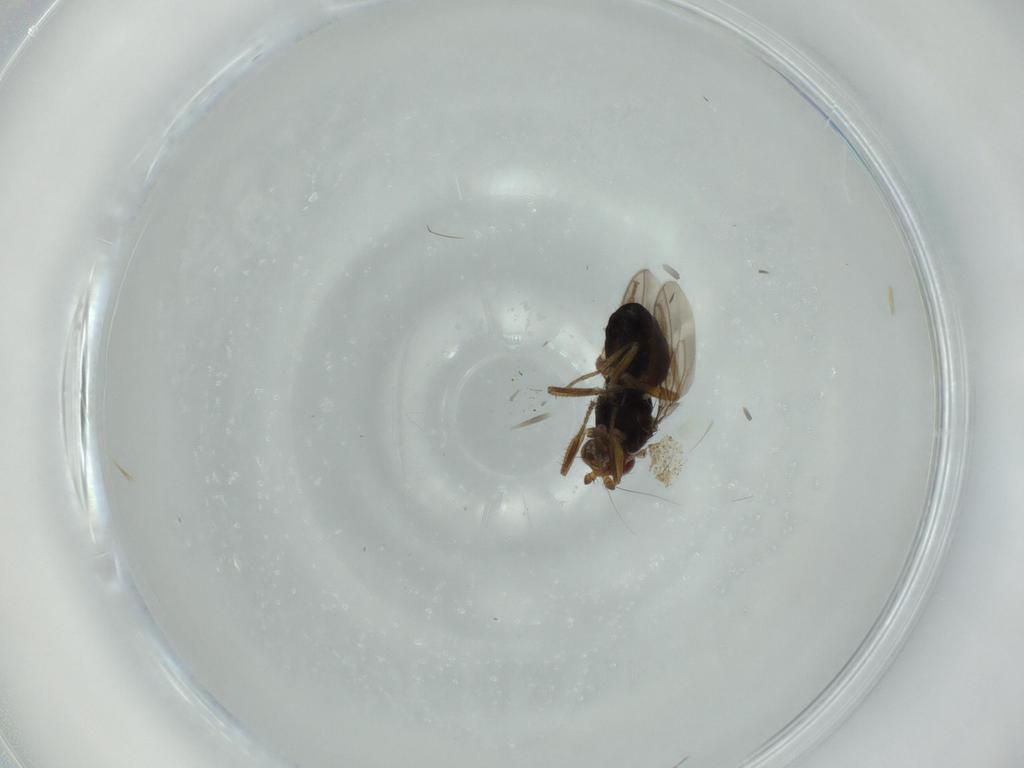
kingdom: Animalia
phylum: Arthropoda
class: Insecta
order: Diptera
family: Sphaeroceridae
